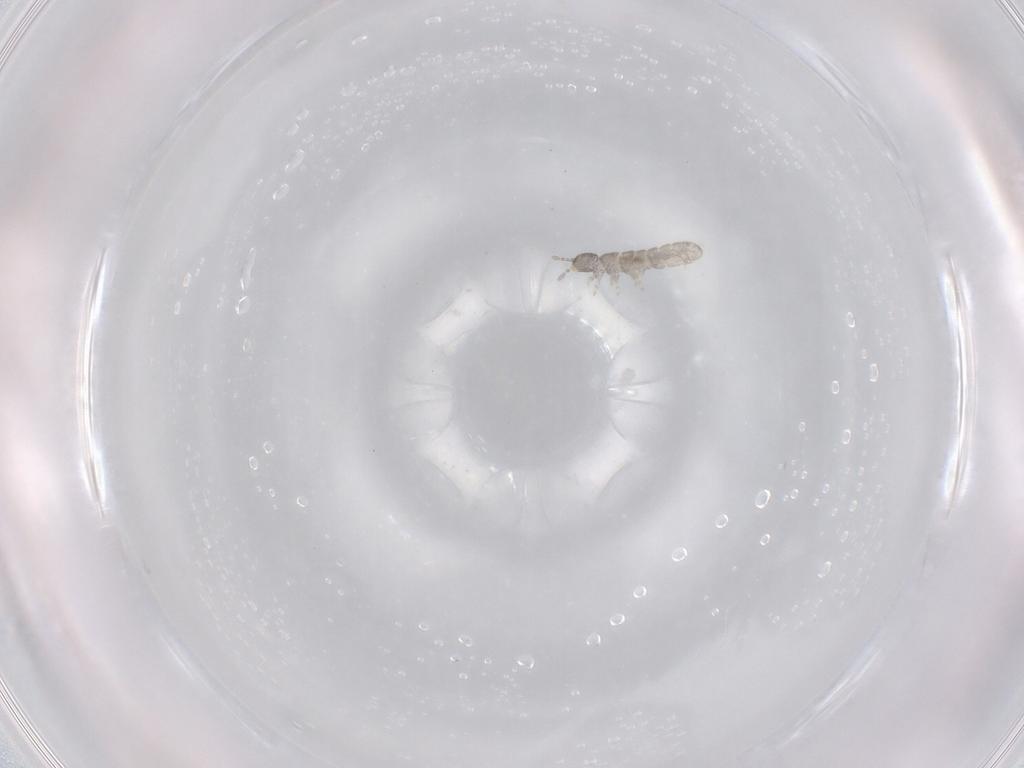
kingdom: Animalia
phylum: Arthropoda
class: Collembola
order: Entomobryomorpha
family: Isotomidae
